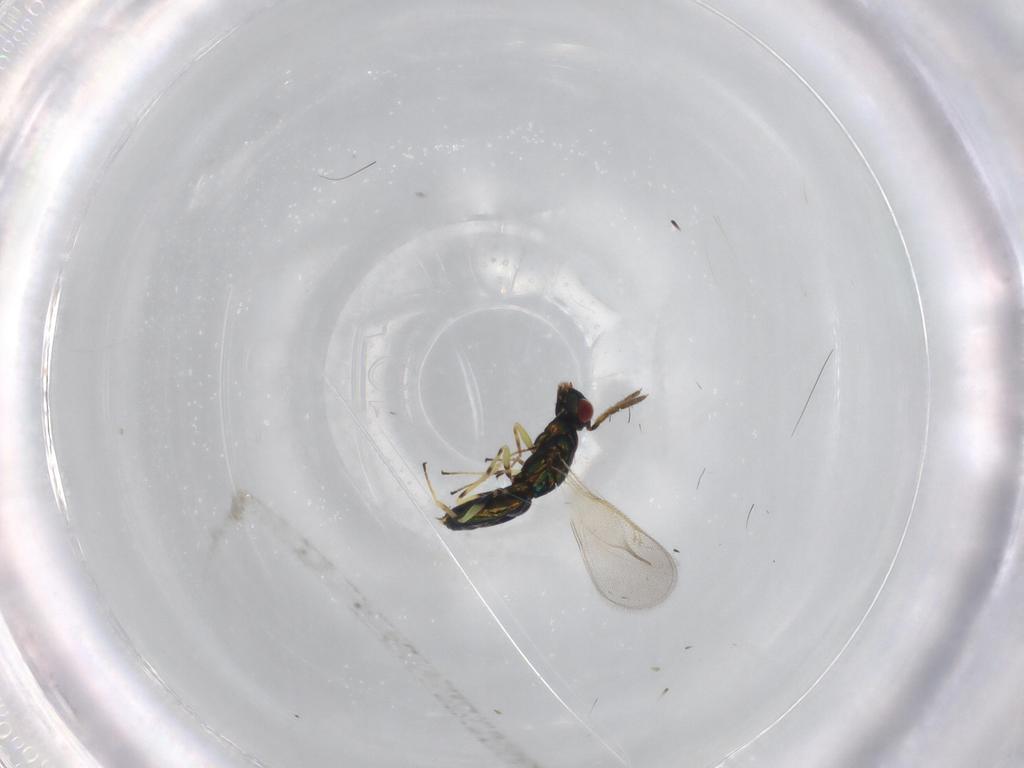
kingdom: Animalia
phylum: Arthropoda
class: Insecta
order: Hymenoptera
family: Eulophidae
